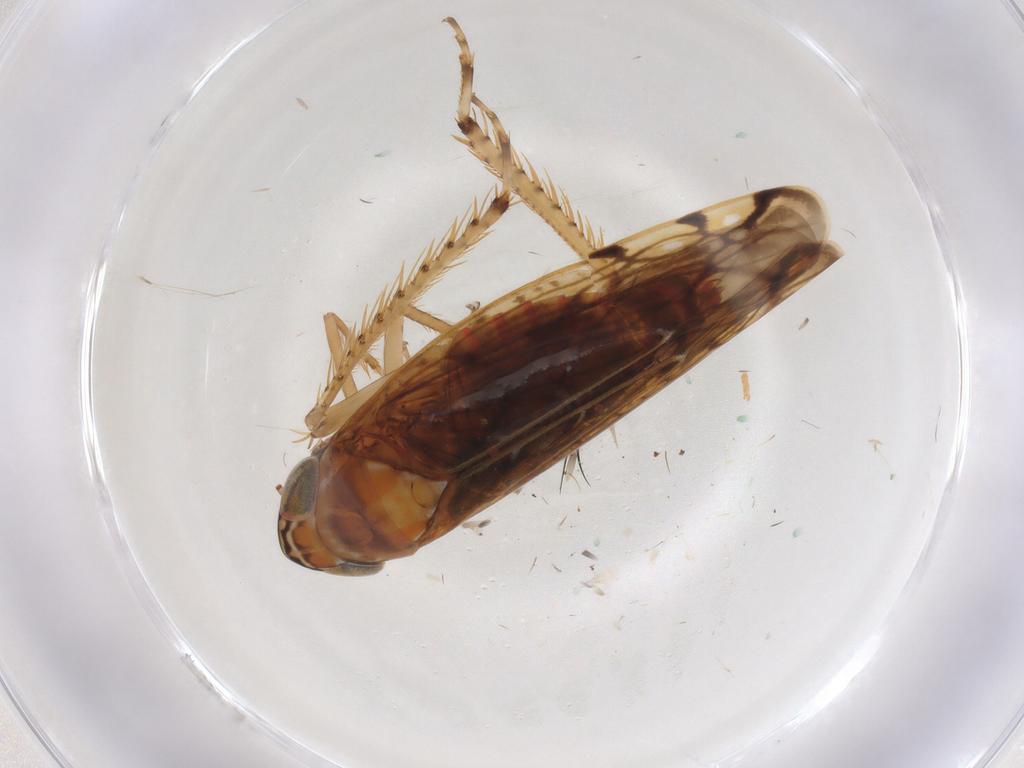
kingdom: Animalia
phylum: Arthropoda
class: Insecta
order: Hemiptera
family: Cicadellidae
